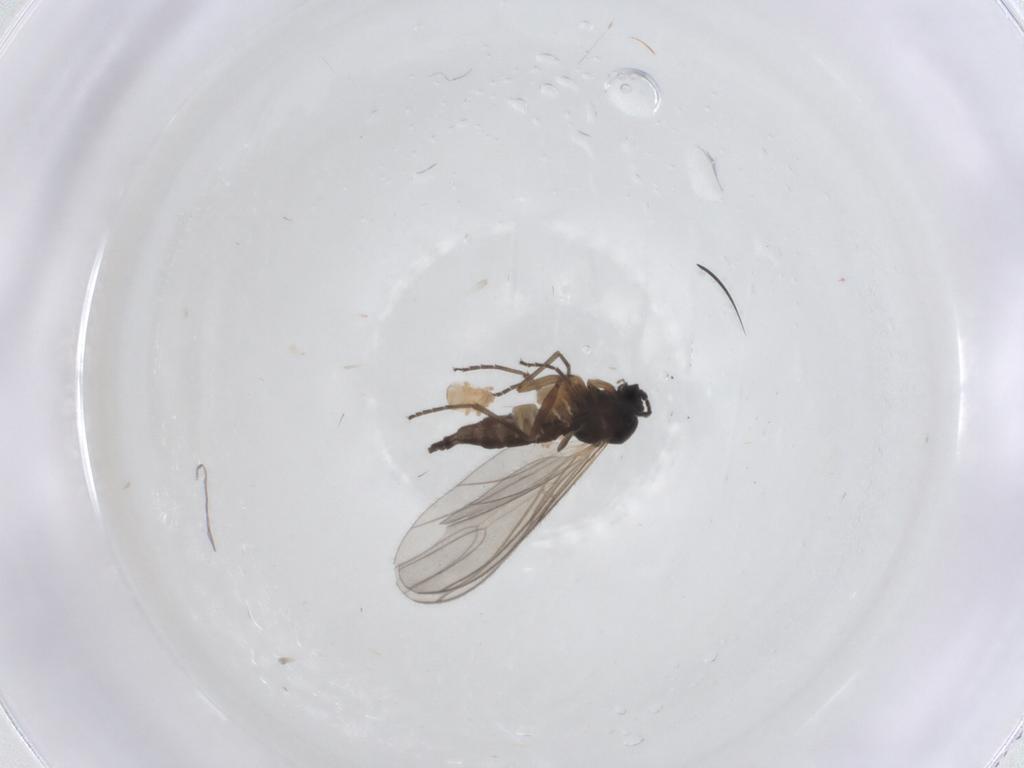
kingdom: Animalia
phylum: Arthropoda
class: Insecta
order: Diptera
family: Sciaridae
